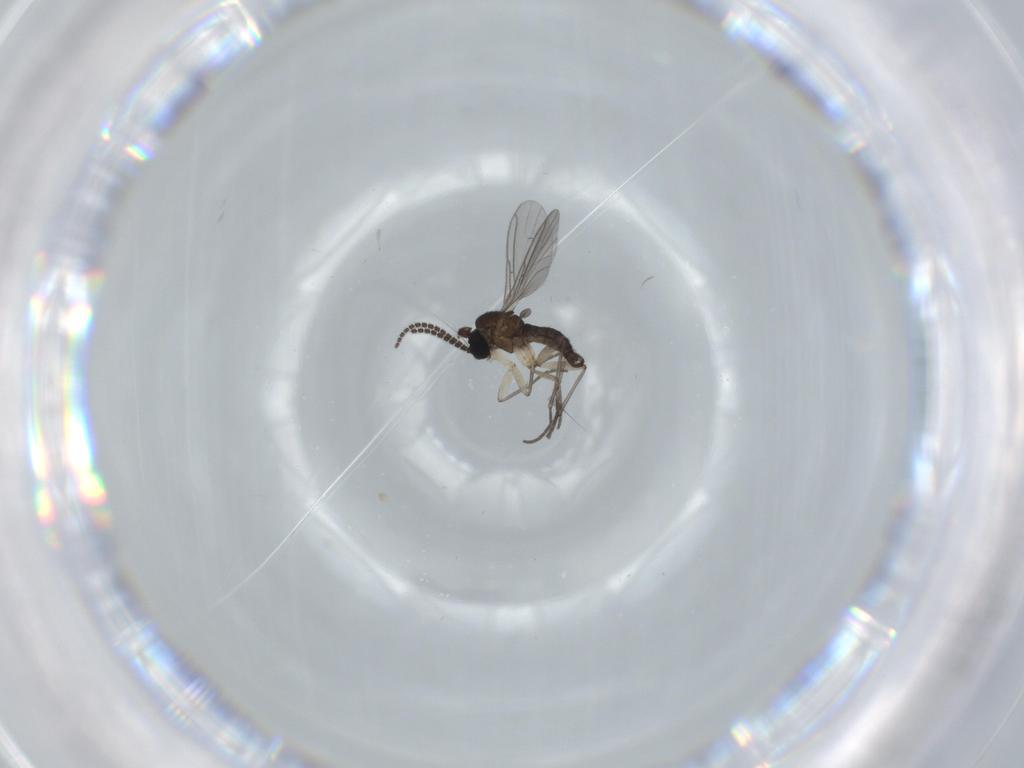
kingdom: Animalia
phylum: Arthropoda
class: Insecta
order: Diptera
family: Sciaridae
